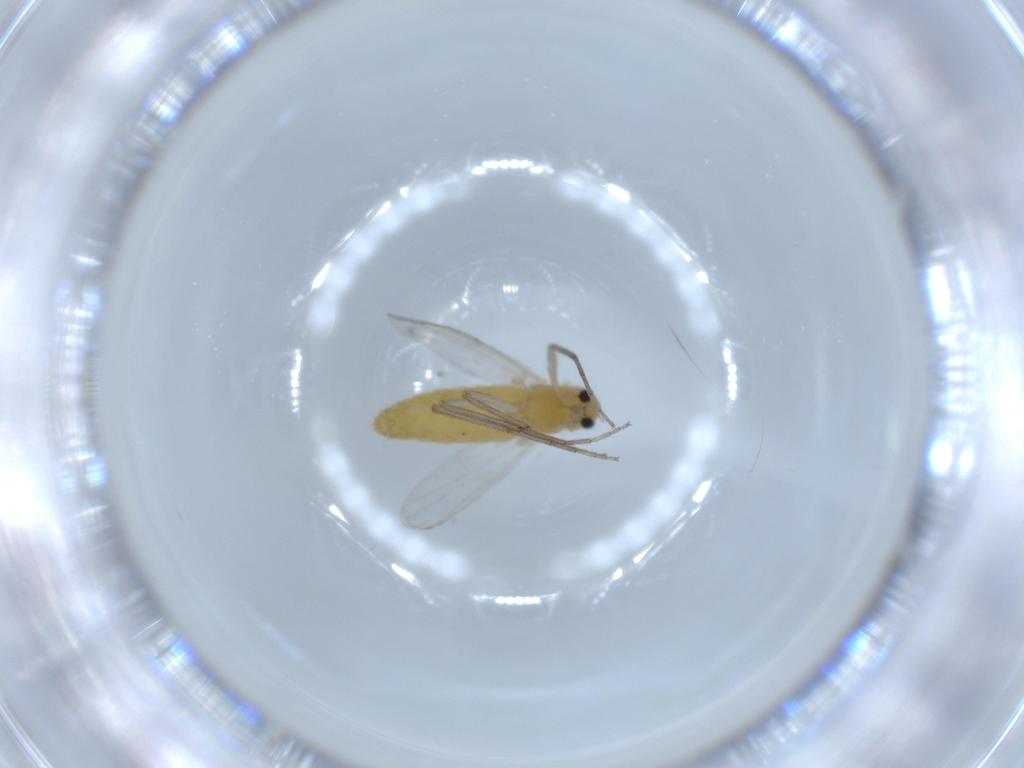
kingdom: Animalia
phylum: Arthropoda
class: Insecta
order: Diptera
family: Chironomidae
